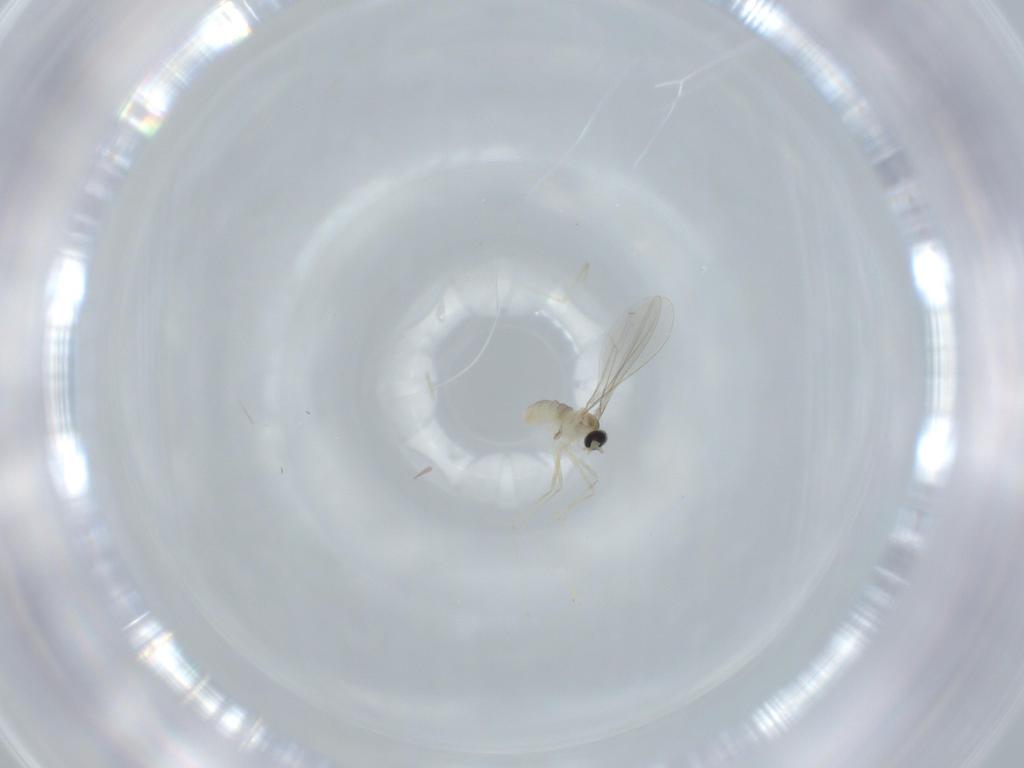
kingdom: Animalia
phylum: Arthropoda
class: Insecta
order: Diptera
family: Cecidomyiidae
